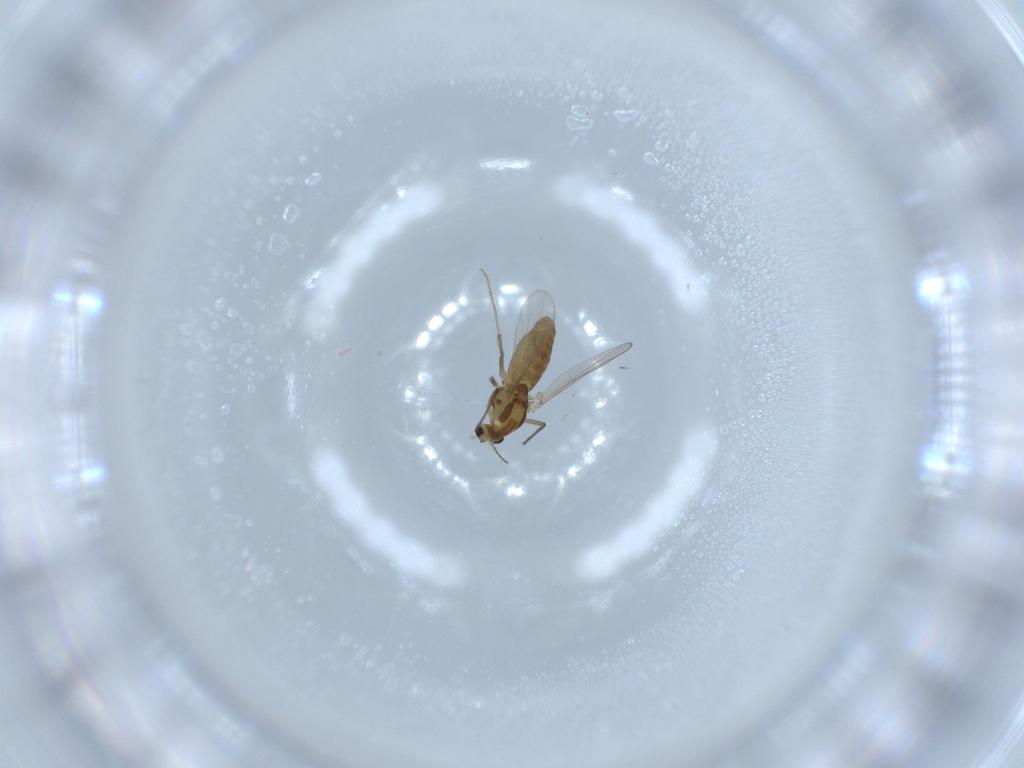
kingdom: Animalia
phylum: Arthropoda
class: Insecta
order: Diptera
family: Chironomidae
